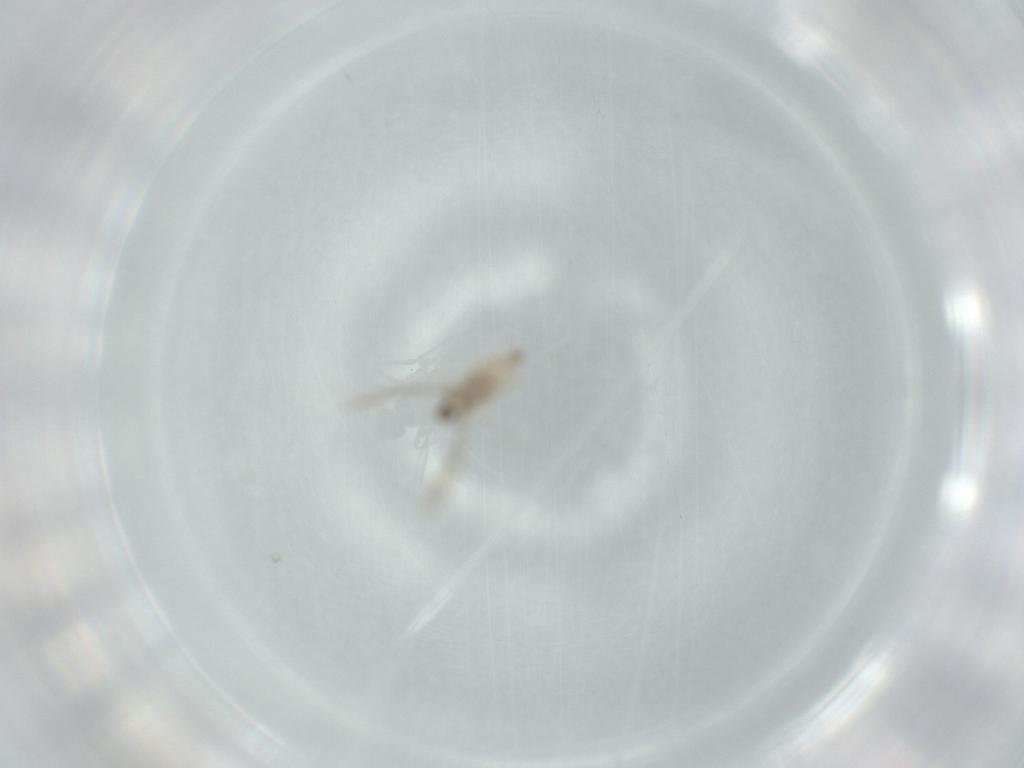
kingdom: Animalia
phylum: Arthropoda
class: Insecta
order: Diptera
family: Cecidomyiidae
